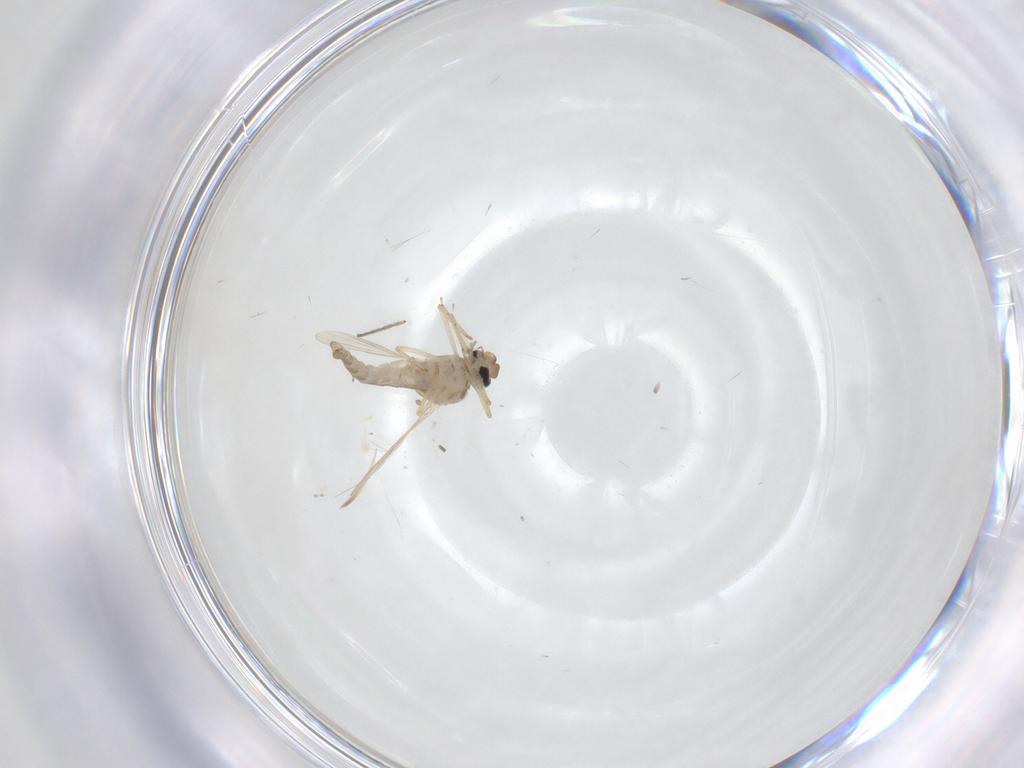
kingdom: Animalia
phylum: Arthropoda
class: Insecta
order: Diptera
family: Ceratopogonidae
